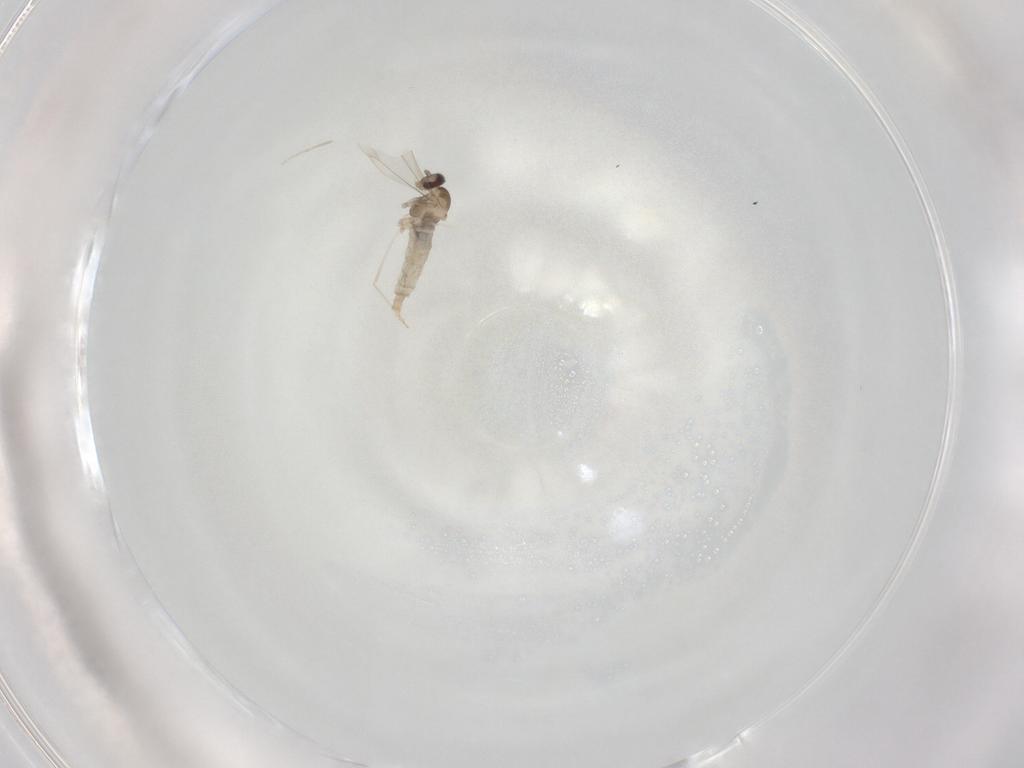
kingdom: Animalia
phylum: Arthropoda
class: Insecta
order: Diptera
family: Cecidomyiidae
